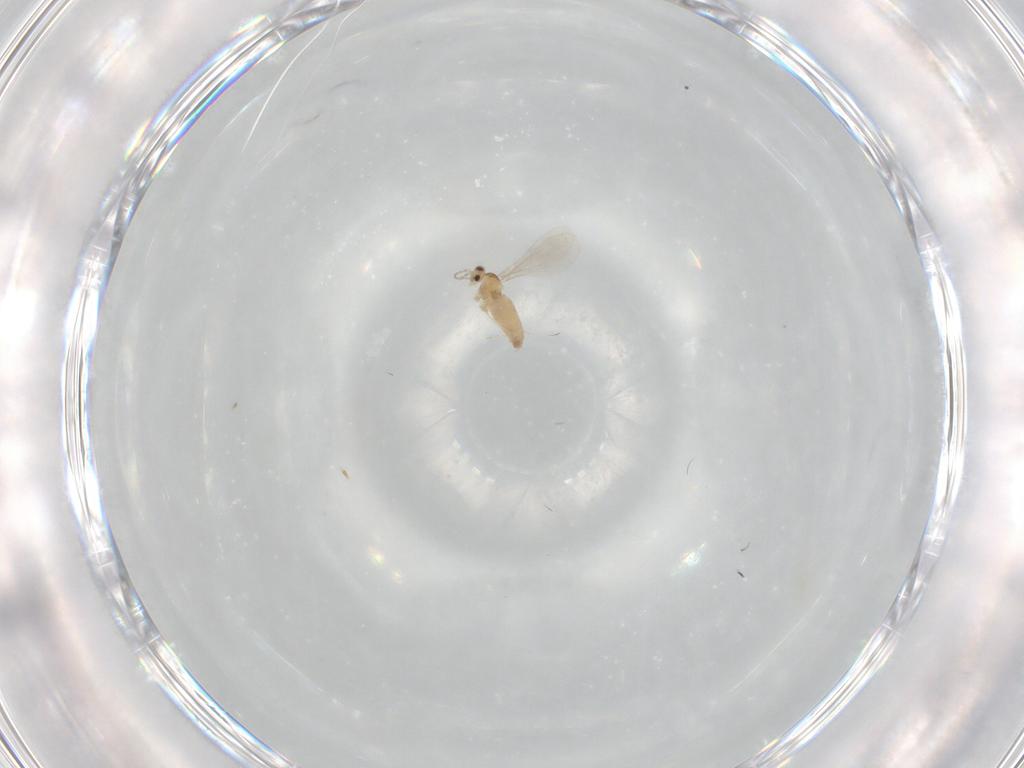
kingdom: Animalia
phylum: Arthropoda
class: Insecta
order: Diptera
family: Cecidomyiidae
